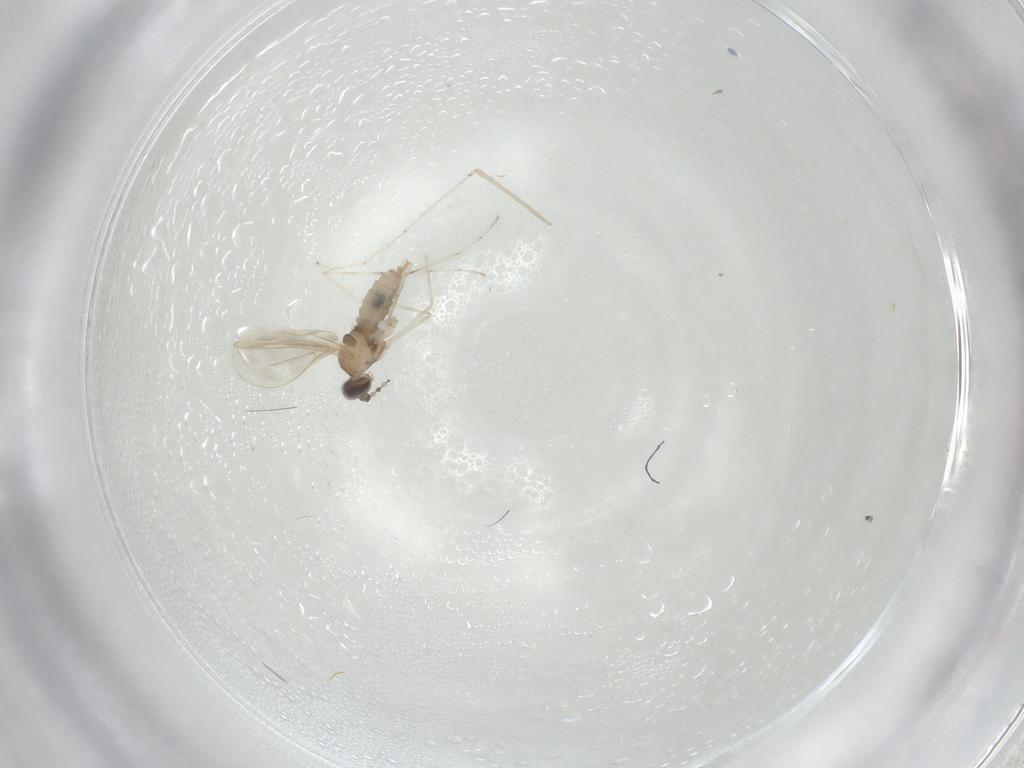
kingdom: Animalia
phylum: Arthropoda
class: Insecta
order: Diptera
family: Cecidomyiidae
